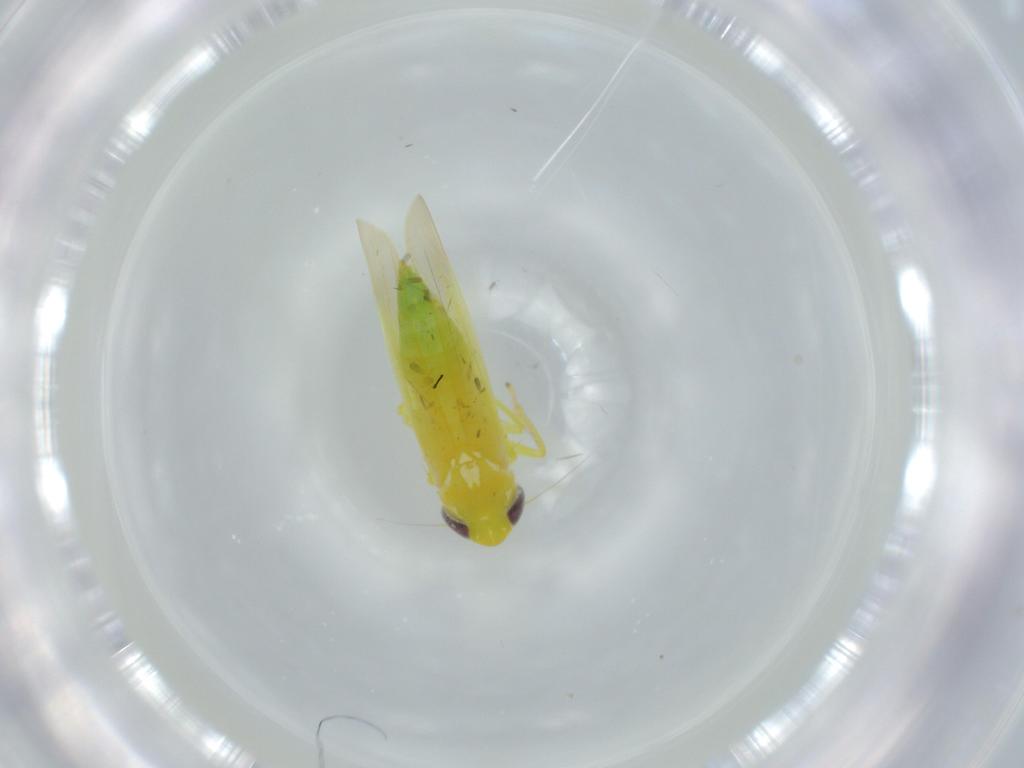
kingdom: Animalia
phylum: Arthropoda
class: Insecta
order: Hemiptera
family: Cicadellidae
